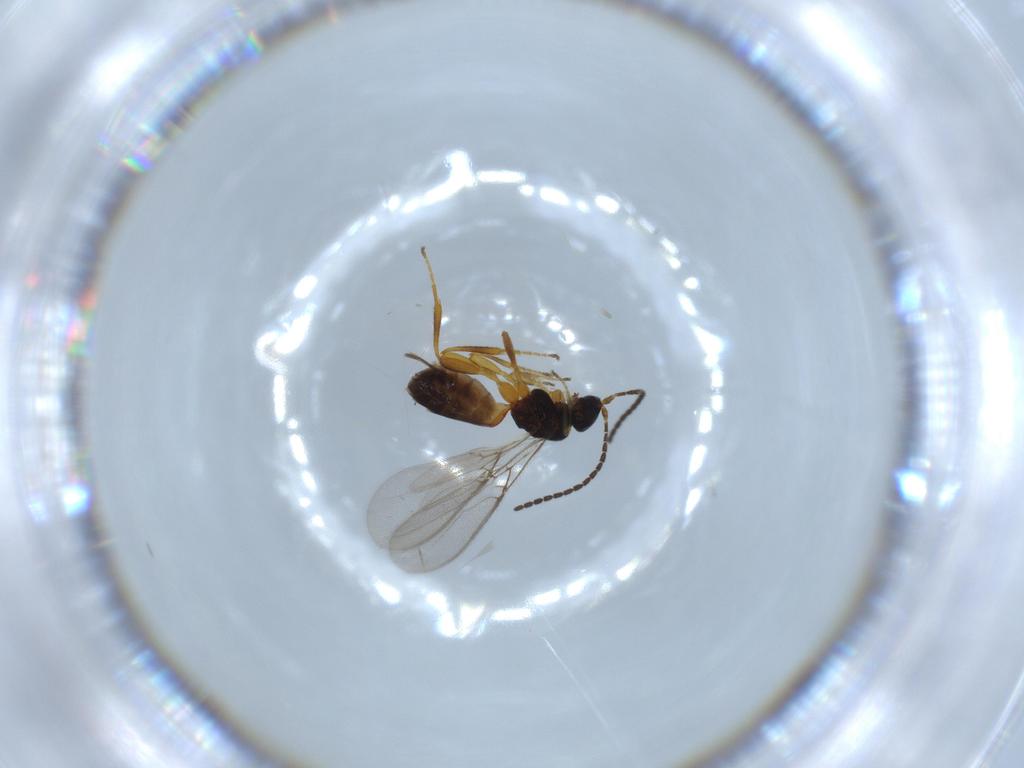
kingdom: Animalia
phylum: Arthropoda
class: Insecta
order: Hymenoptera
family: Braconidae
